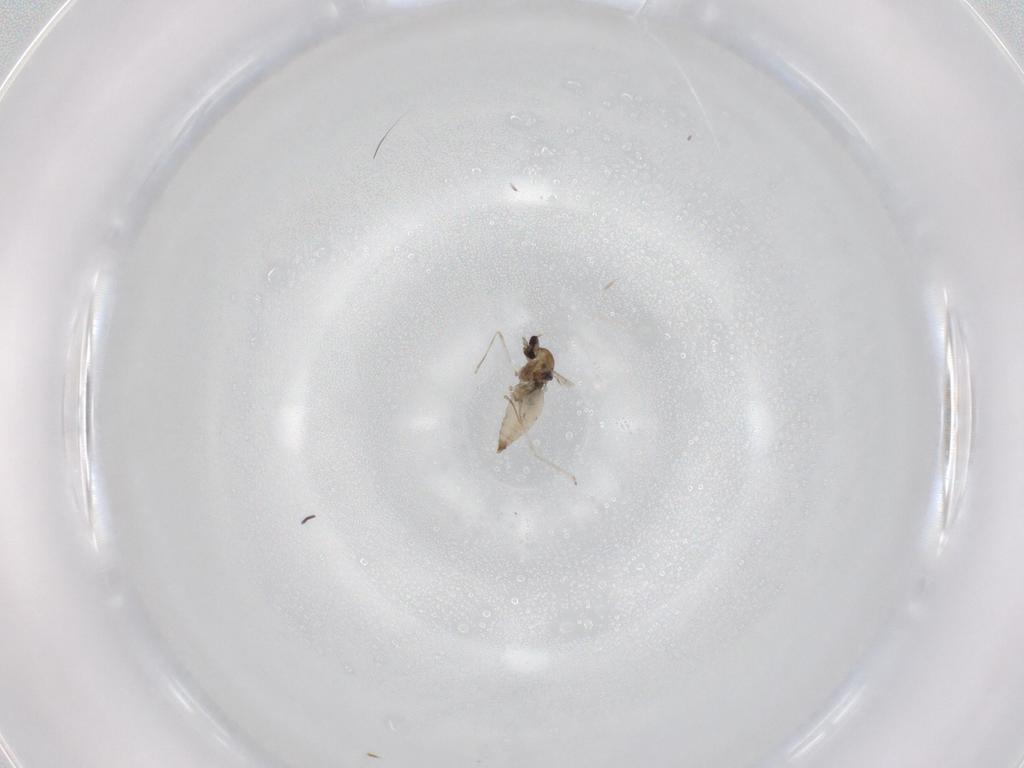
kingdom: Animalia
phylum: Arthropoda
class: Insecta
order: Diptera
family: Cecidomyiidae
